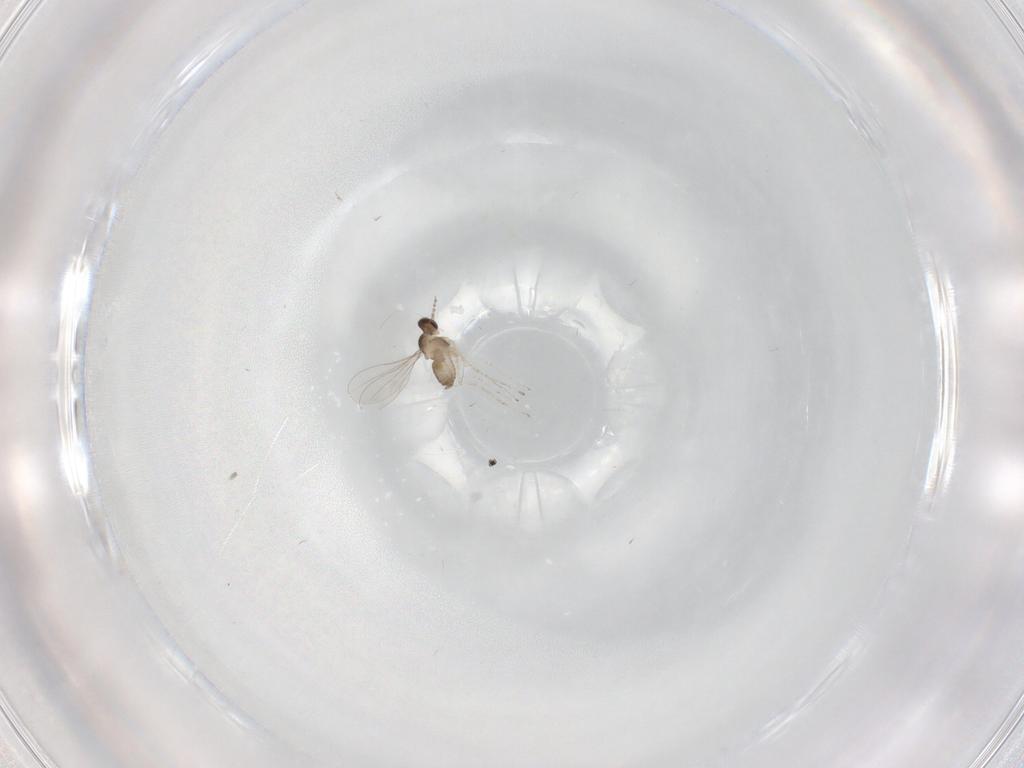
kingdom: Animalia
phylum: Arthropoda
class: Insecta
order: Diptera
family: Cecidomyiidae
